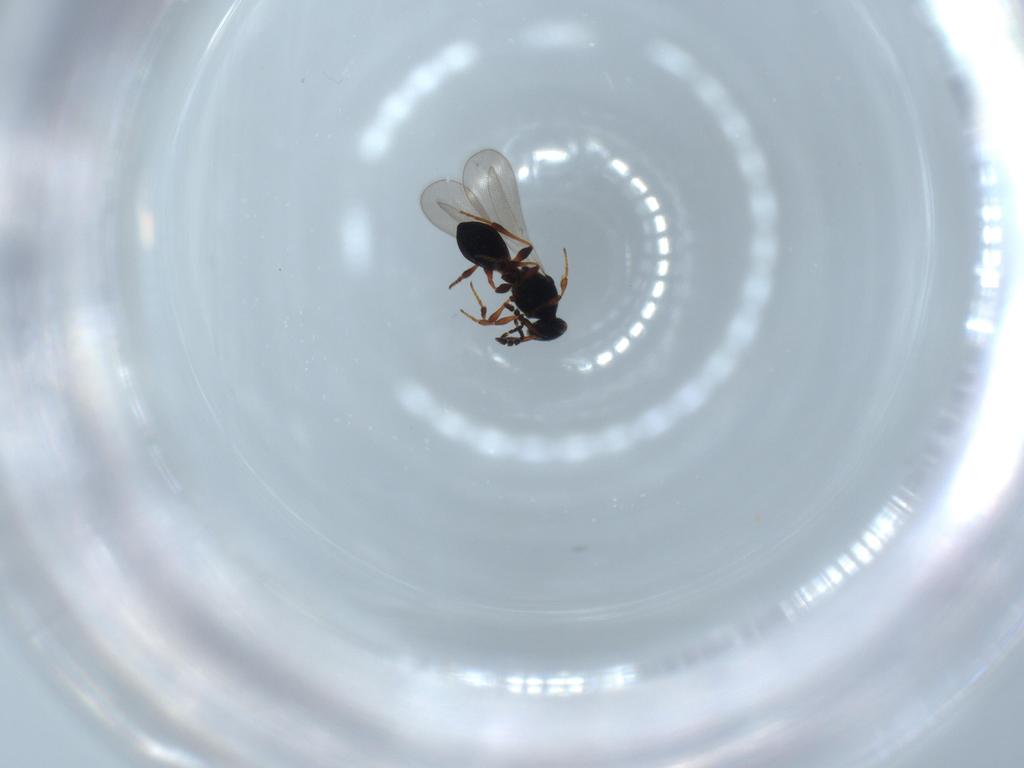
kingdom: Animalia
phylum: Arthropoda
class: Insecta
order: Hymenoptera
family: Platygastridae
